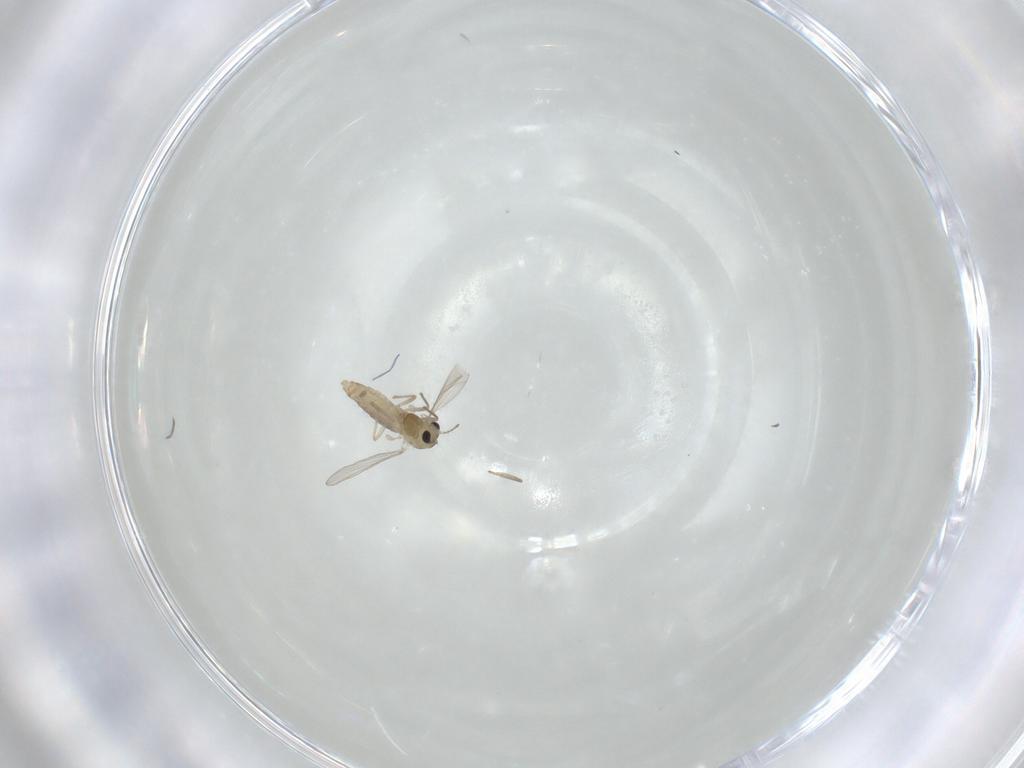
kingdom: Animalia
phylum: Arthropoda
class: Insecta
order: Diptera
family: Chironomidae
